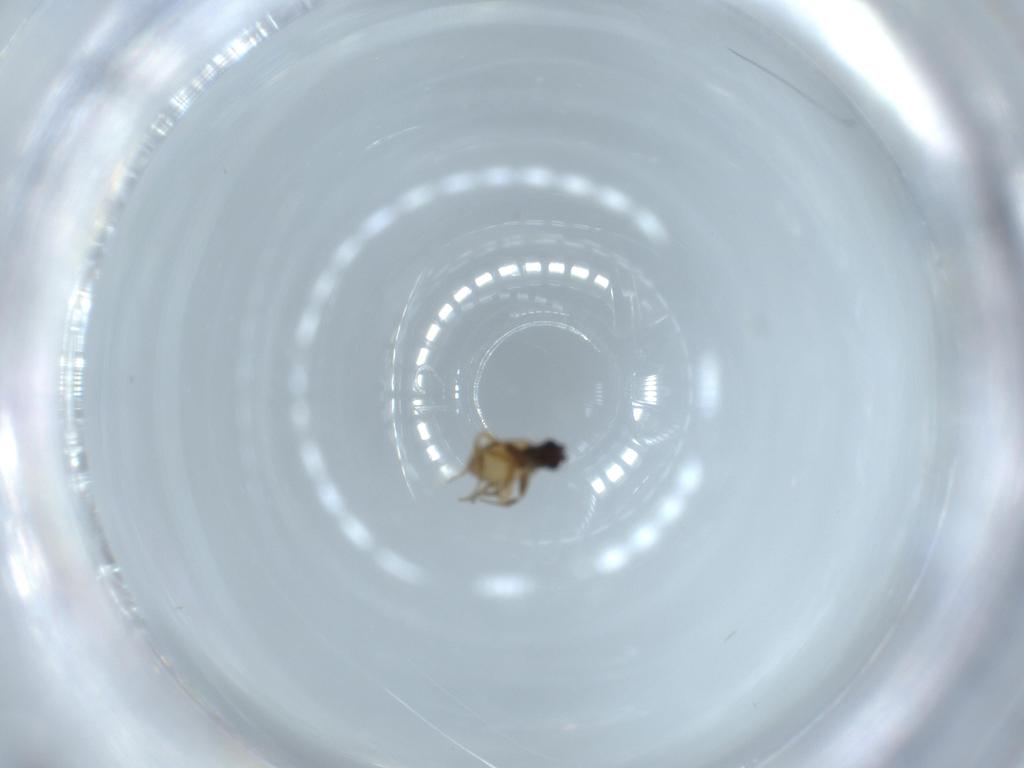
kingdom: Animalia
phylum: Arthropoda
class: Insecta
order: Diptera
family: Phoridae
